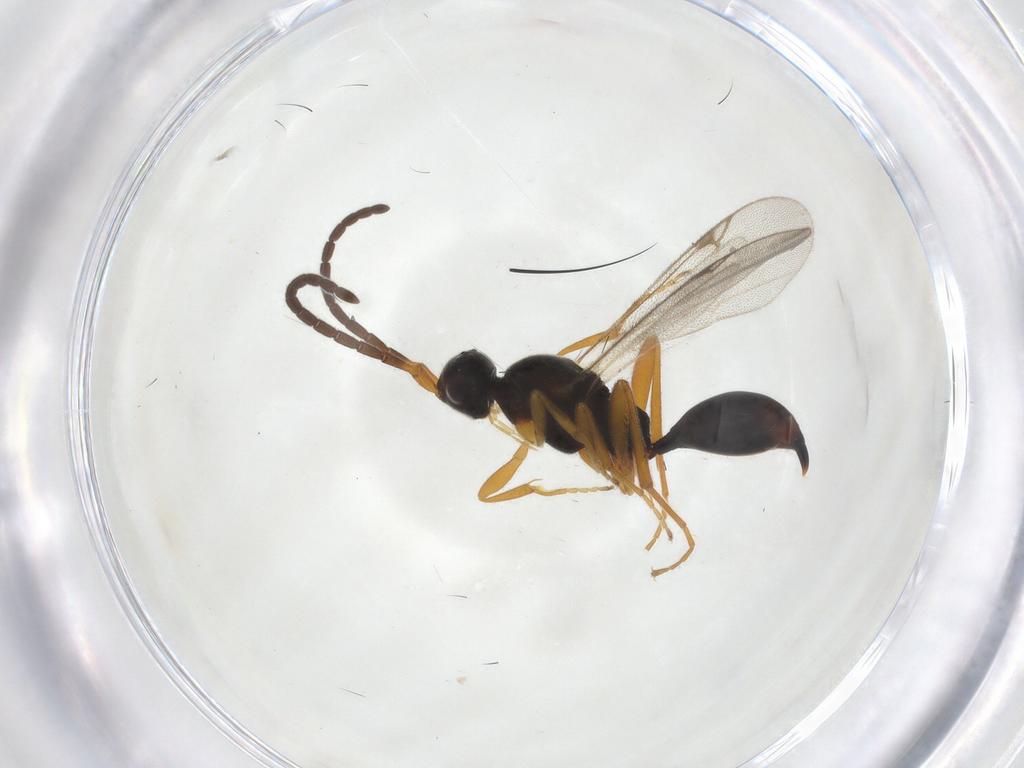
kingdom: Animalia
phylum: Arthropoda
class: Insecta
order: Hymenoptera
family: Proctotrupidae
